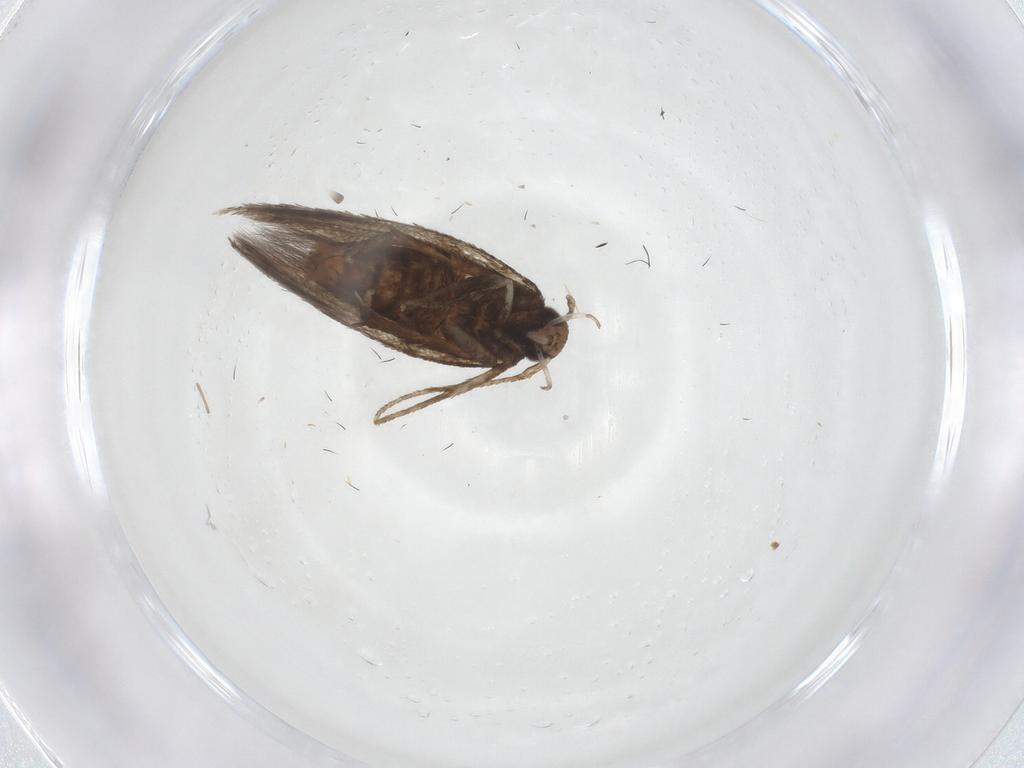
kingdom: Animalia
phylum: Arthropoda
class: Insecta
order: Lepidoptera
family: Gelechiidae
